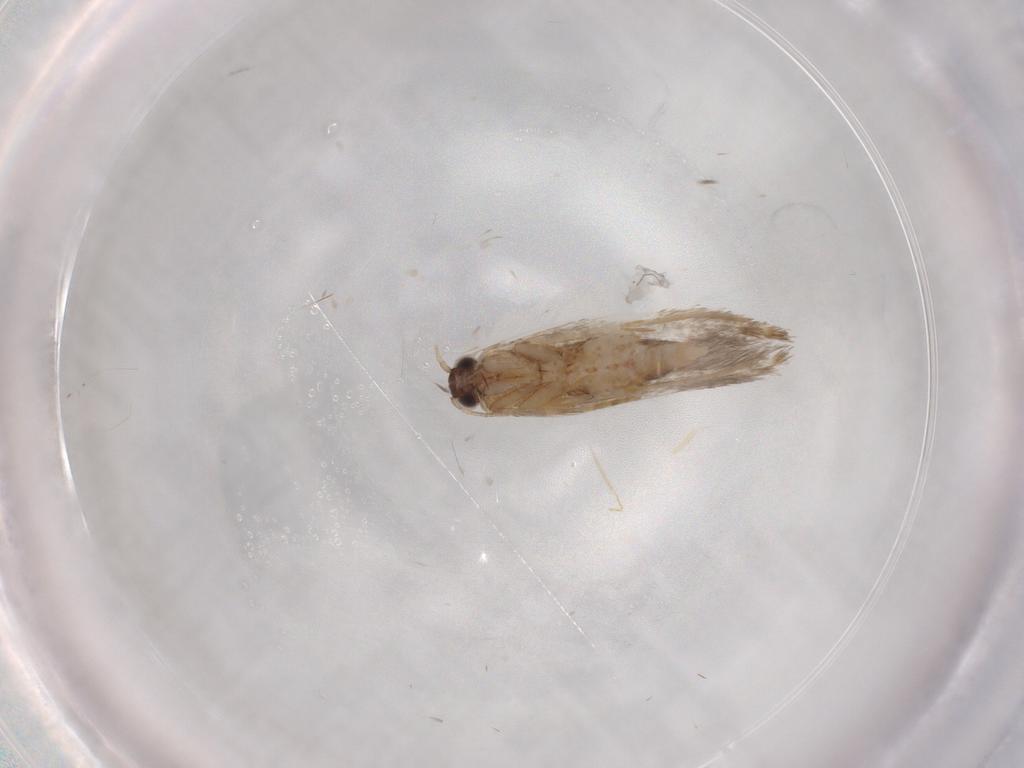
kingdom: Animalia
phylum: Arthropoda
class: Insecta
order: Lepidoptera
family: Tineidae
